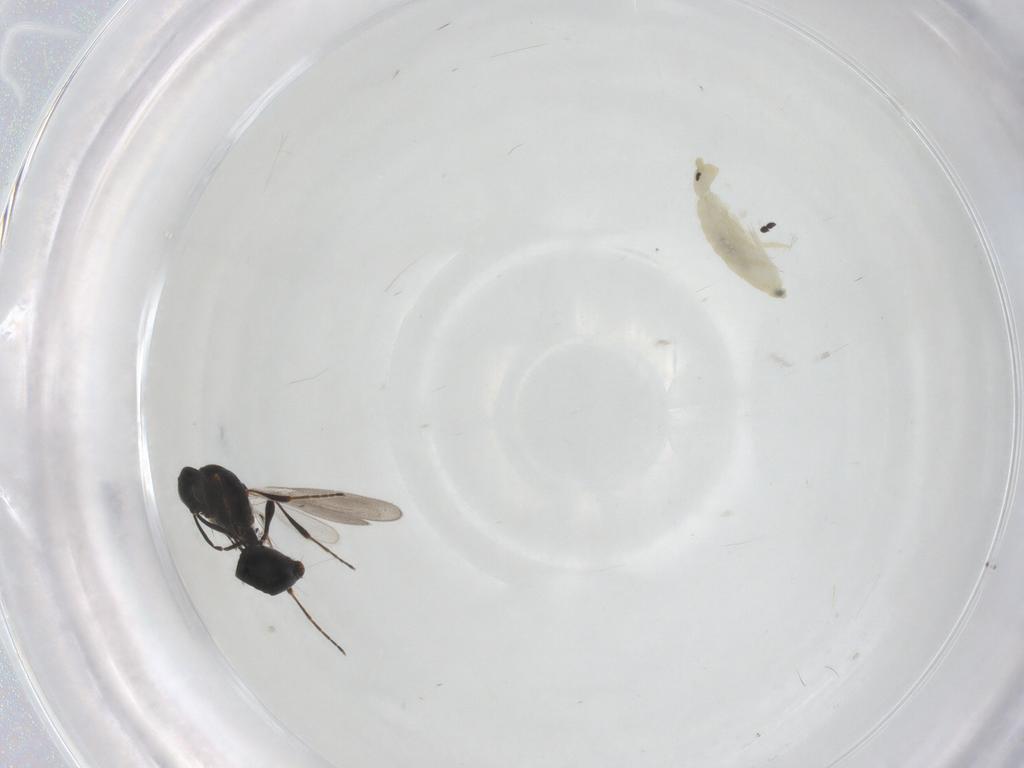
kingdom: Animalia
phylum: Arthropoda
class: Insecta
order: Diptera
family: Mythicomyiidae
